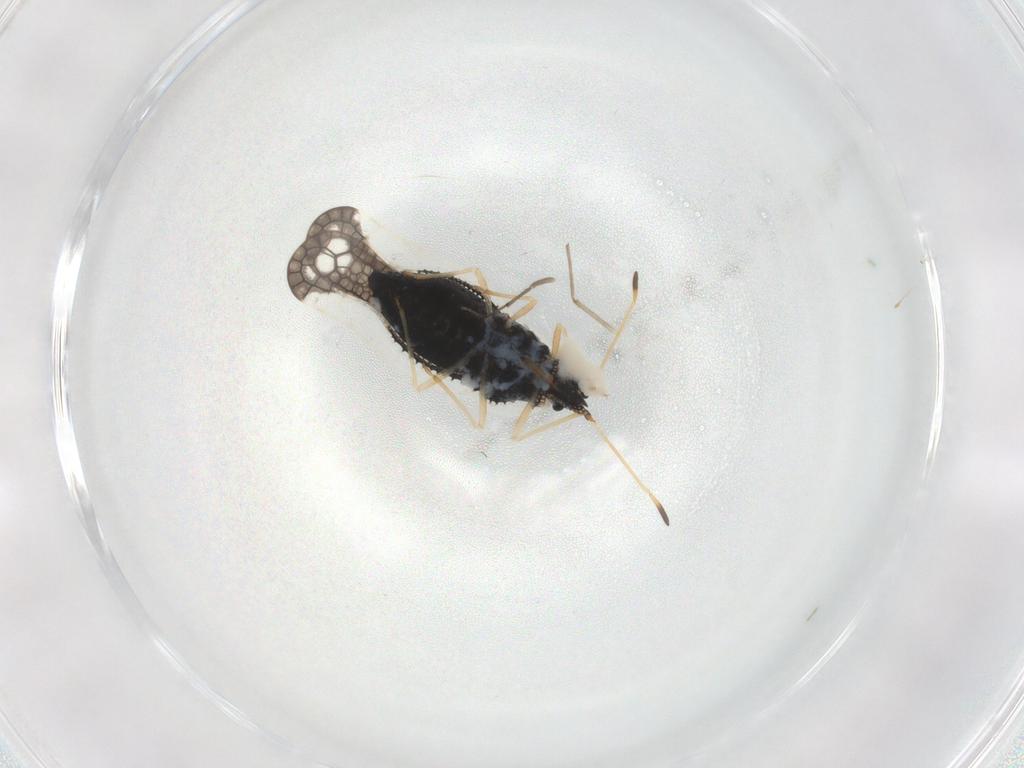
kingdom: Animalia
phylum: Arthropoda
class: Insecta
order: Hemiptera
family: Tingidae
